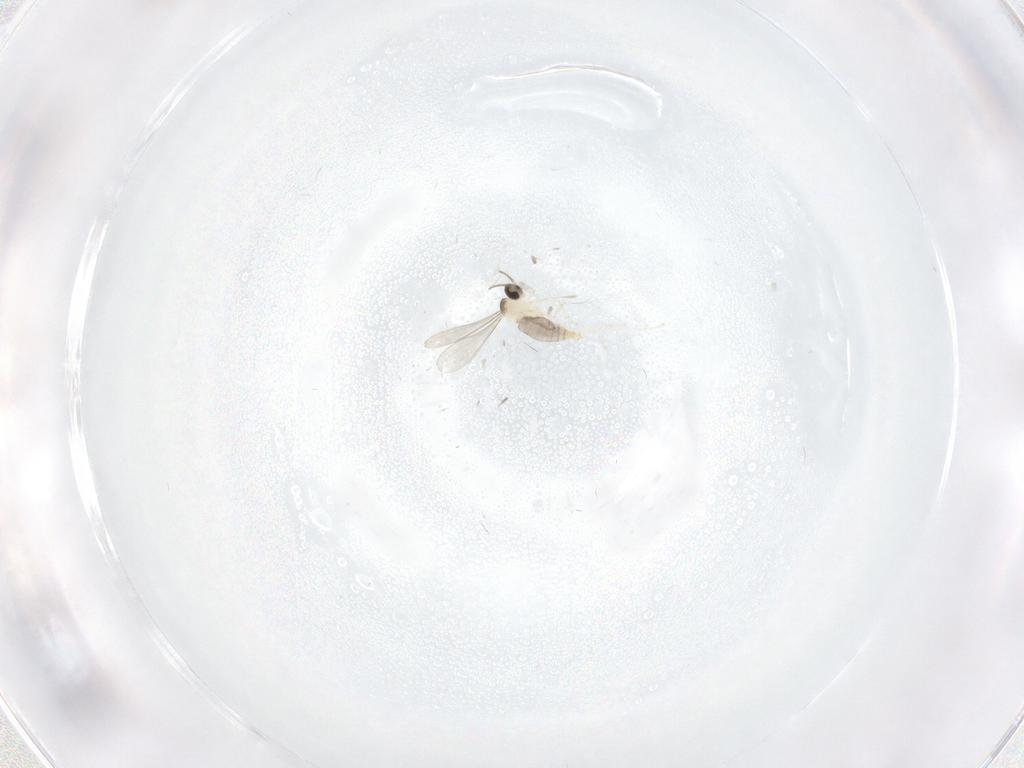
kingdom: Animalia
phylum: Arthropoda
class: Insecta
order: Diptera
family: Cecidomyiidae
